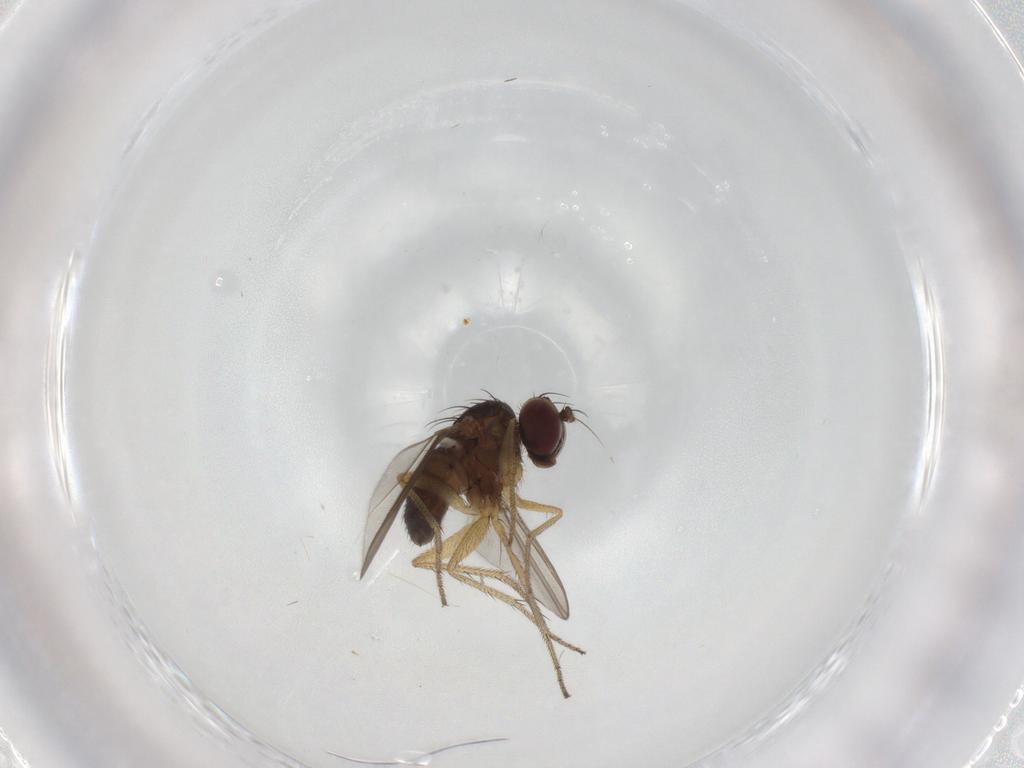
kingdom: Animalia
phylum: Arthropoda
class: Insecta
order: Diptera
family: Dolichopodidae
